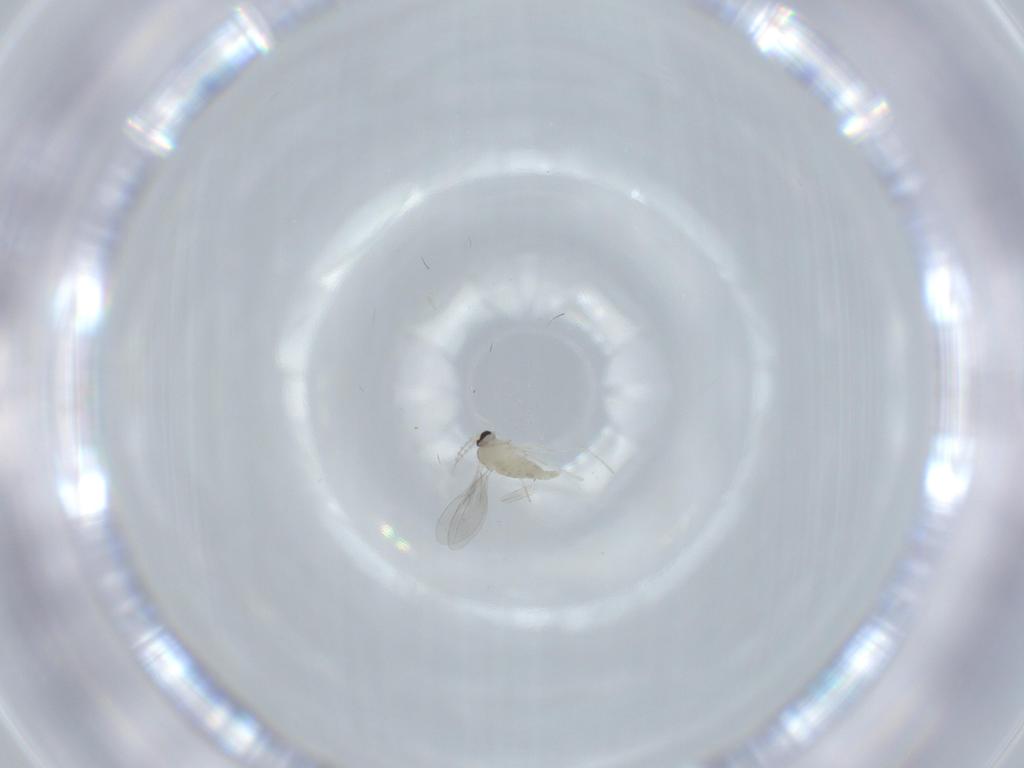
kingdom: Animalia
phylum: Arthropoda
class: Insecta
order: Diptera
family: Cecidomyiidae
